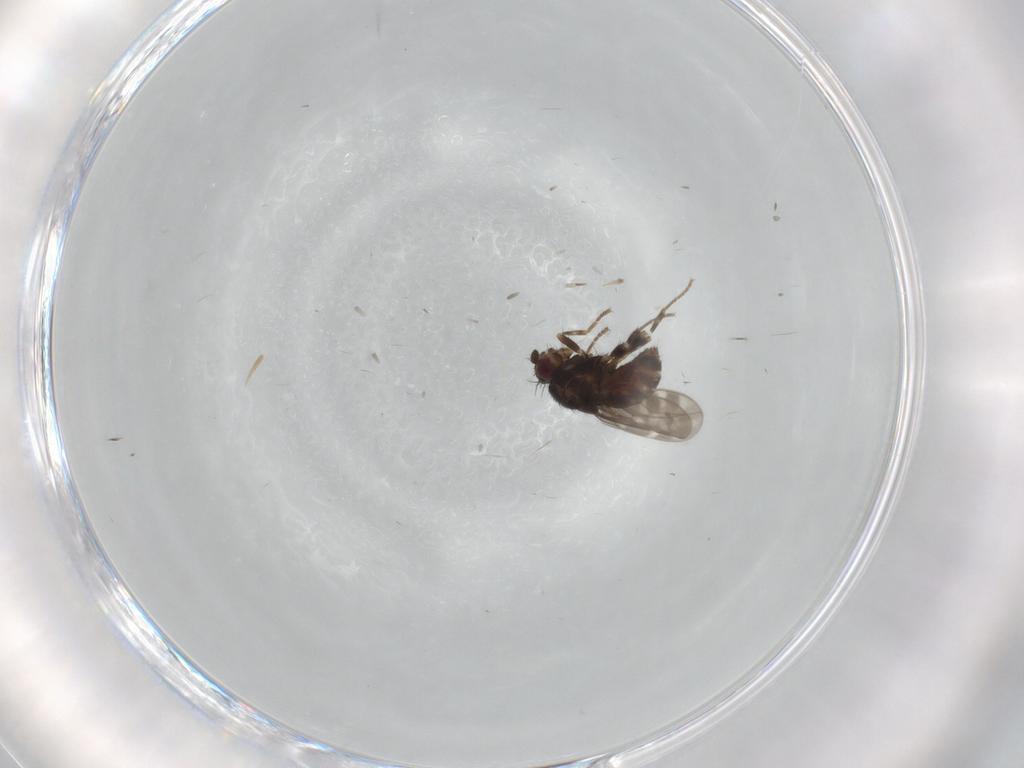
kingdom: Animalia
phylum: Arthropoda
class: Insecta
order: Diptera
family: Sphaeroceridae
